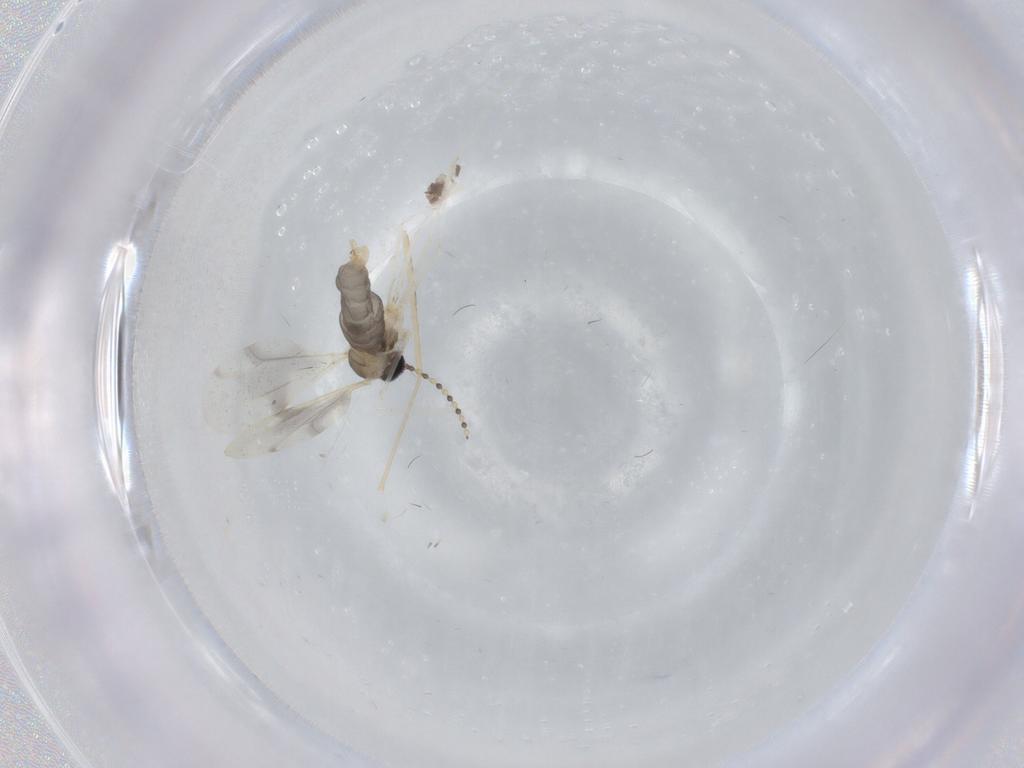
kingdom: Animalia
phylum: Arthropoda
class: Insecta
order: Diptera
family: Cecidomyiidae
